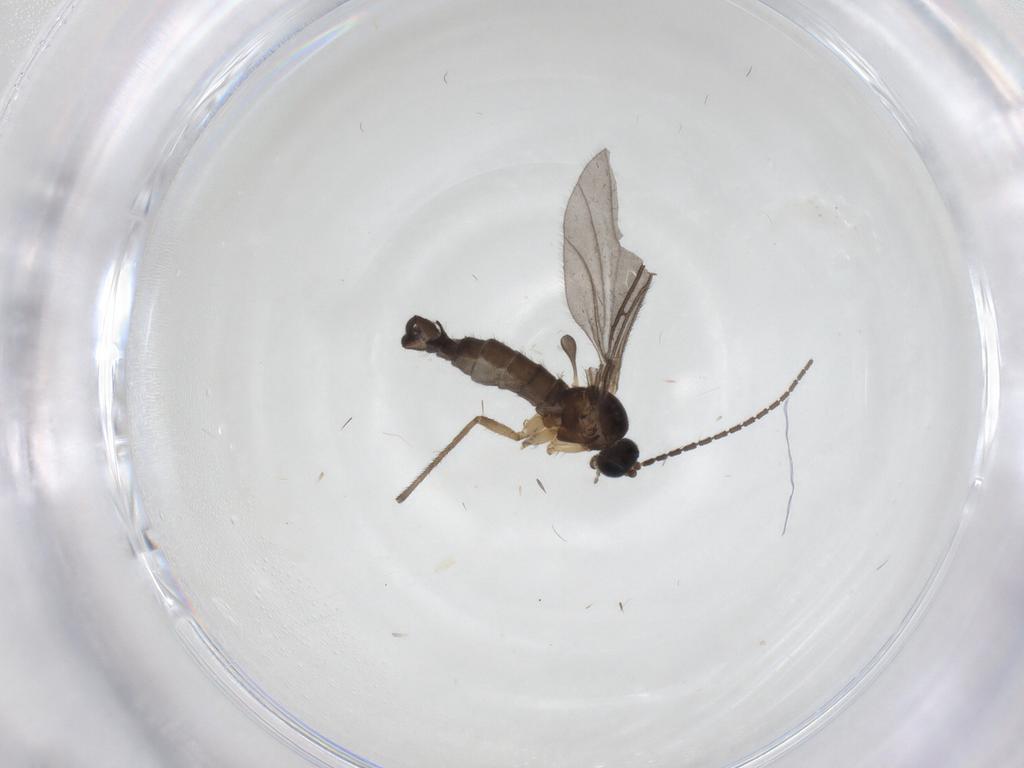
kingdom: Animalia
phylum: Arthropoda
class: Insecta
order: Diptera
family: Sciaridae
